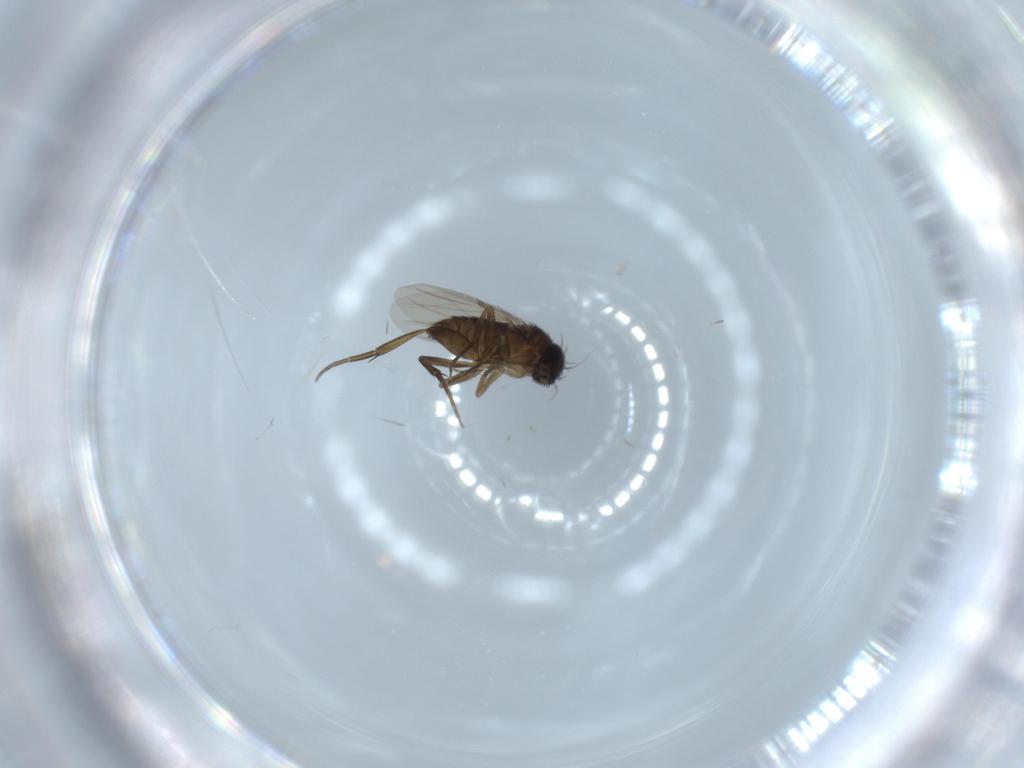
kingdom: Animalia
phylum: Arthropoda
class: Insecta
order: Diptera
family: Phoridae
